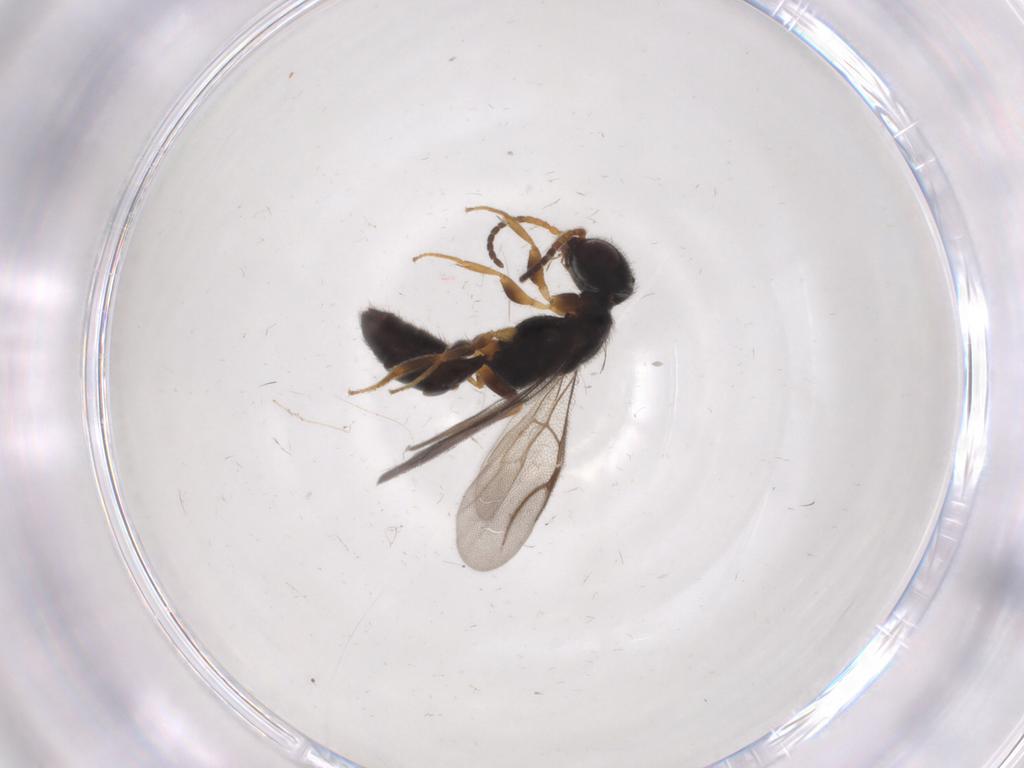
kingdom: Animalia
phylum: Arthropoda
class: Insecta
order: Hymenoptera
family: Bethylidae
